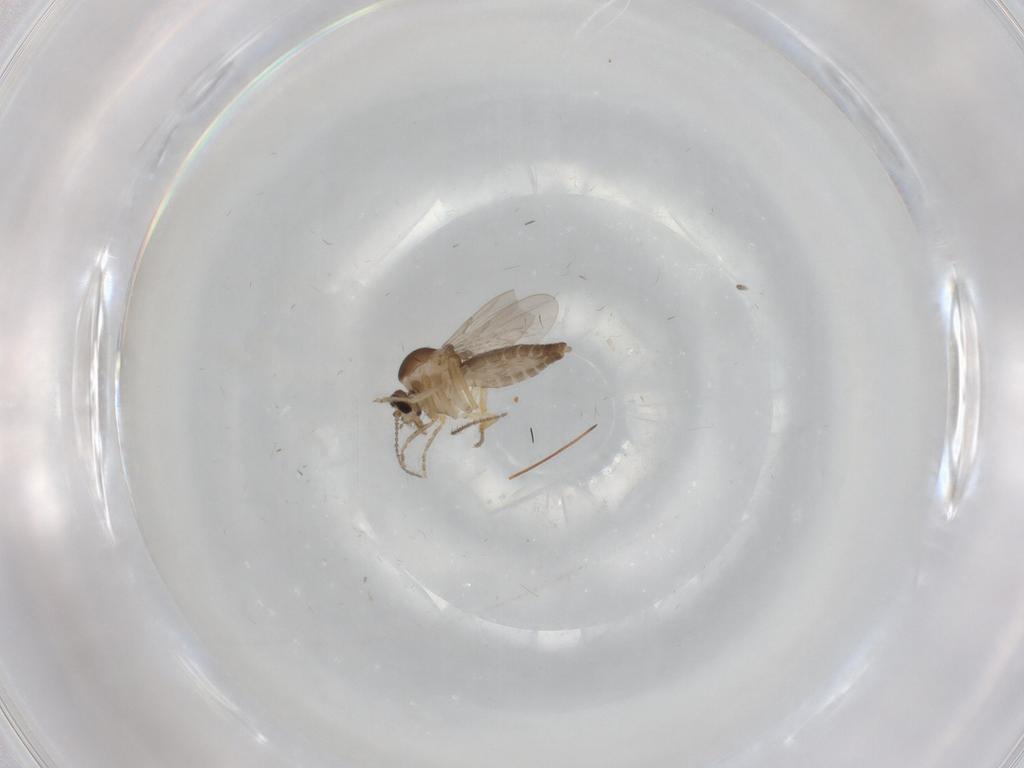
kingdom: Animalia
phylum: Arthropoda
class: Insecta
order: Diptera
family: Ceratopogonidae
